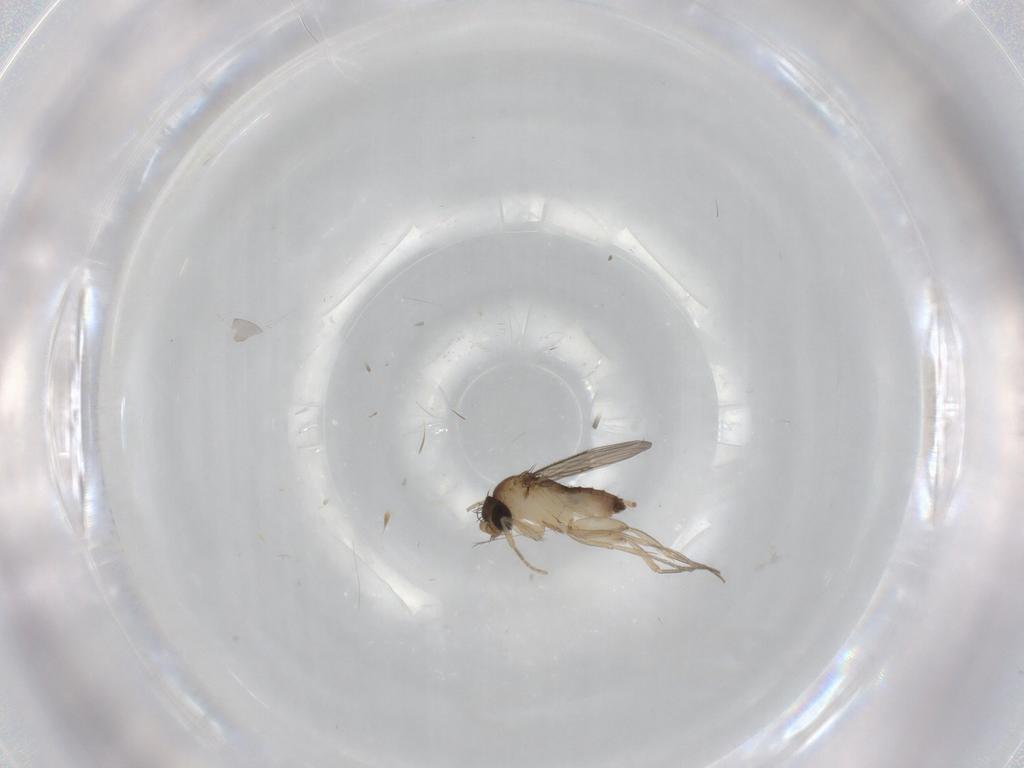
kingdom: Animalia
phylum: Arthropoda
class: Insecta
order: Diptera
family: Phoridae
